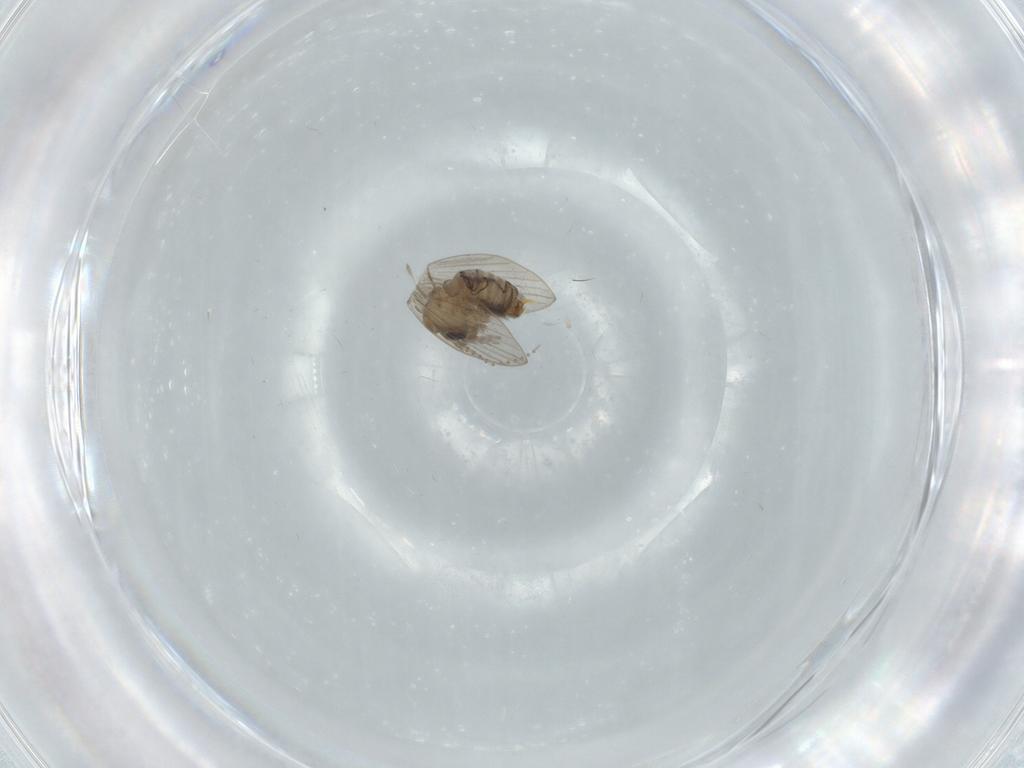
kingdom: Animalia
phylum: Arthropoda
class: Insecta
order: Diptera
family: Psychodidae
